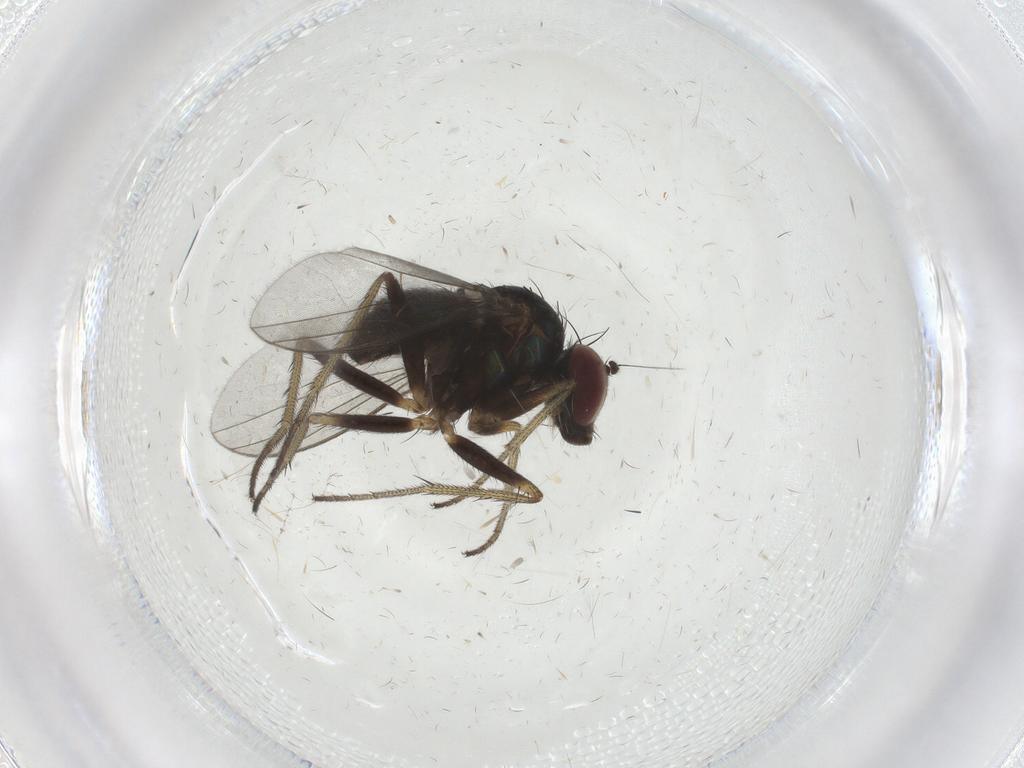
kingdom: Animalia
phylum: Arthropoda
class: Insecta
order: Diptera
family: Dolichopodidae
